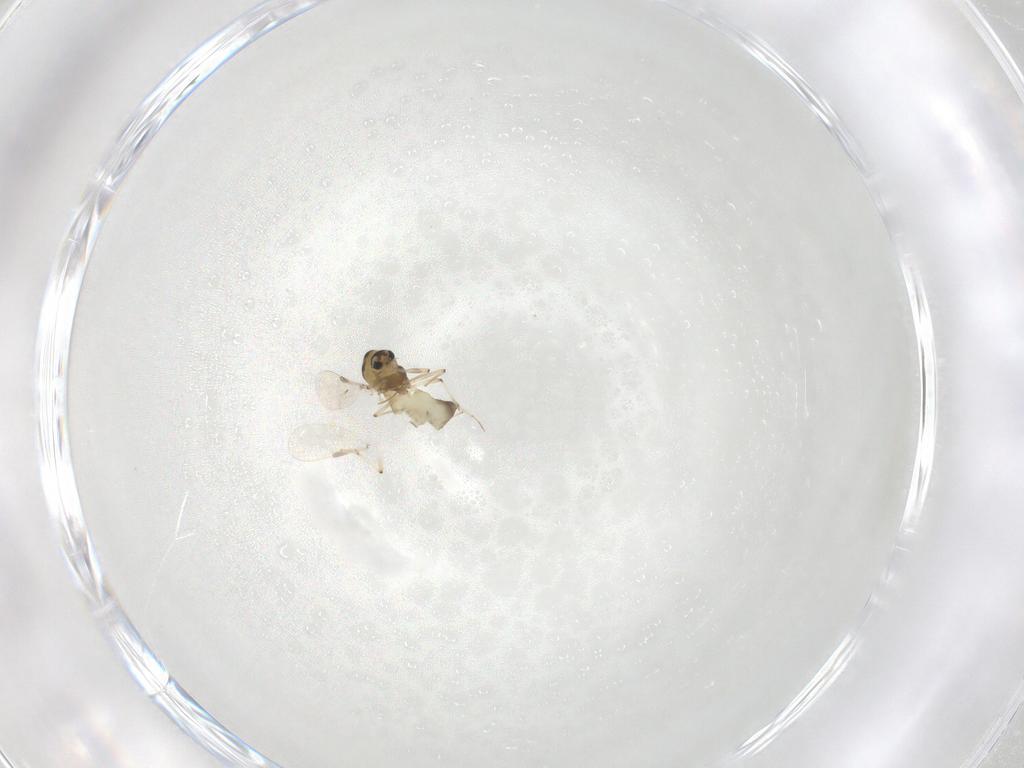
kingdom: Animalia
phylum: Arthropoda
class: Insecta
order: Diptera
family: Chironomidae
